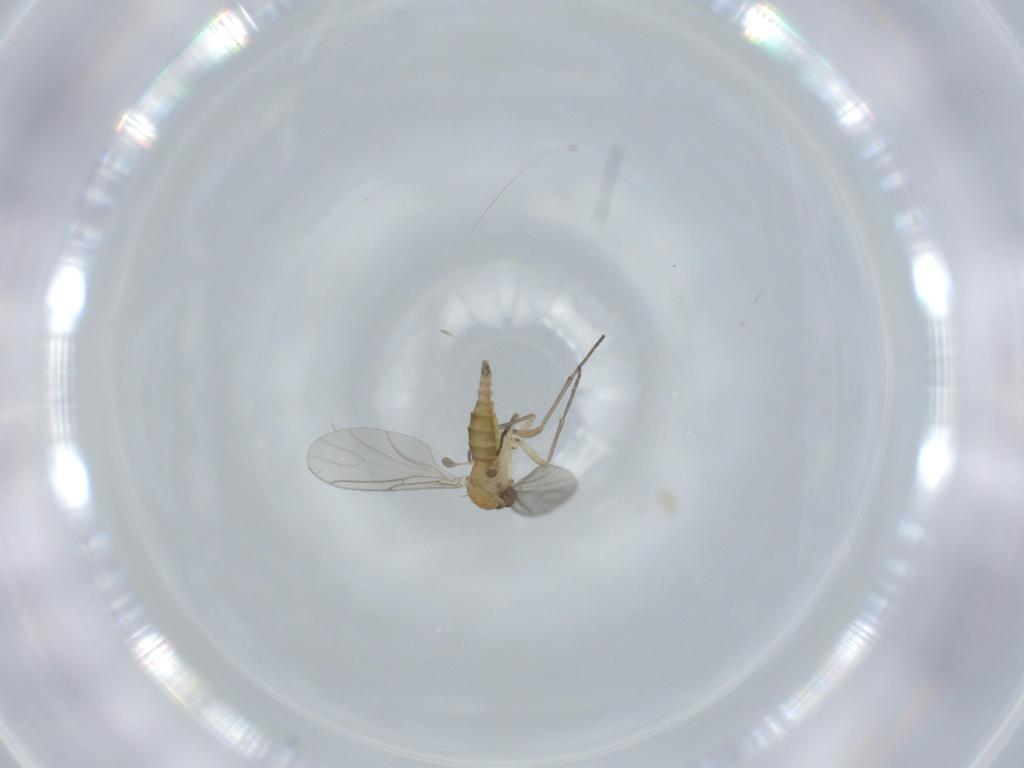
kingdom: Animalia
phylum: Arthropoda
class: Insecta
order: Diptera
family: Sciaridae
